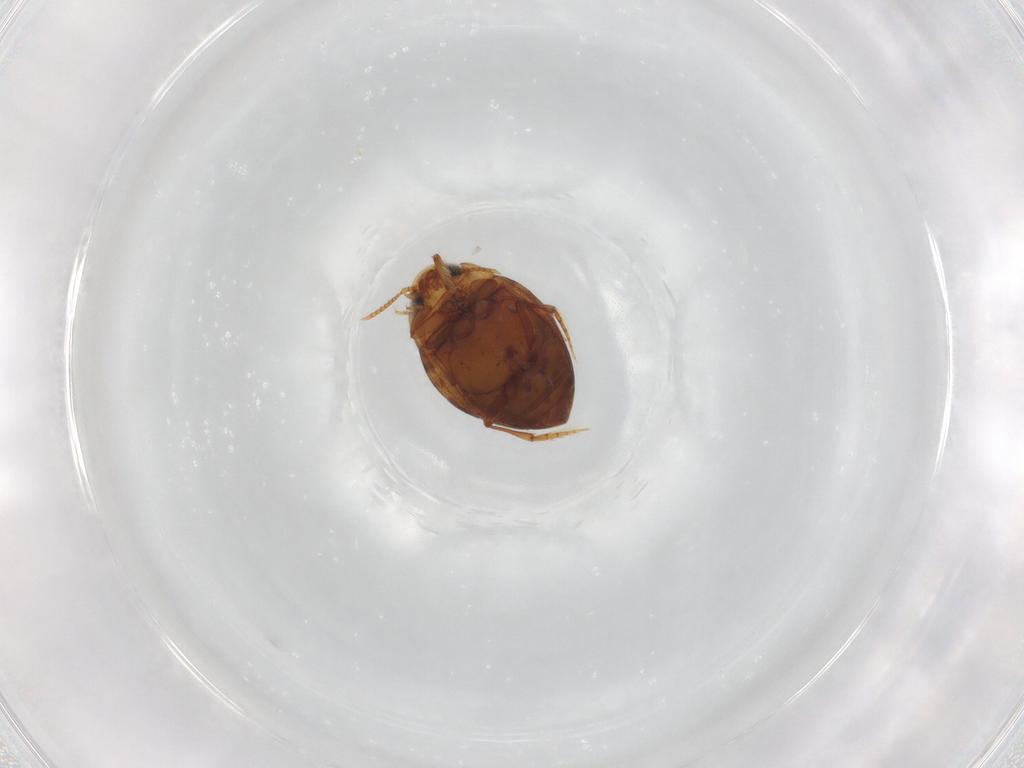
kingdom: Animalia
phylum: Arthropoda
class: Insecta
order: Coleoptera
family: Dytiscidae
